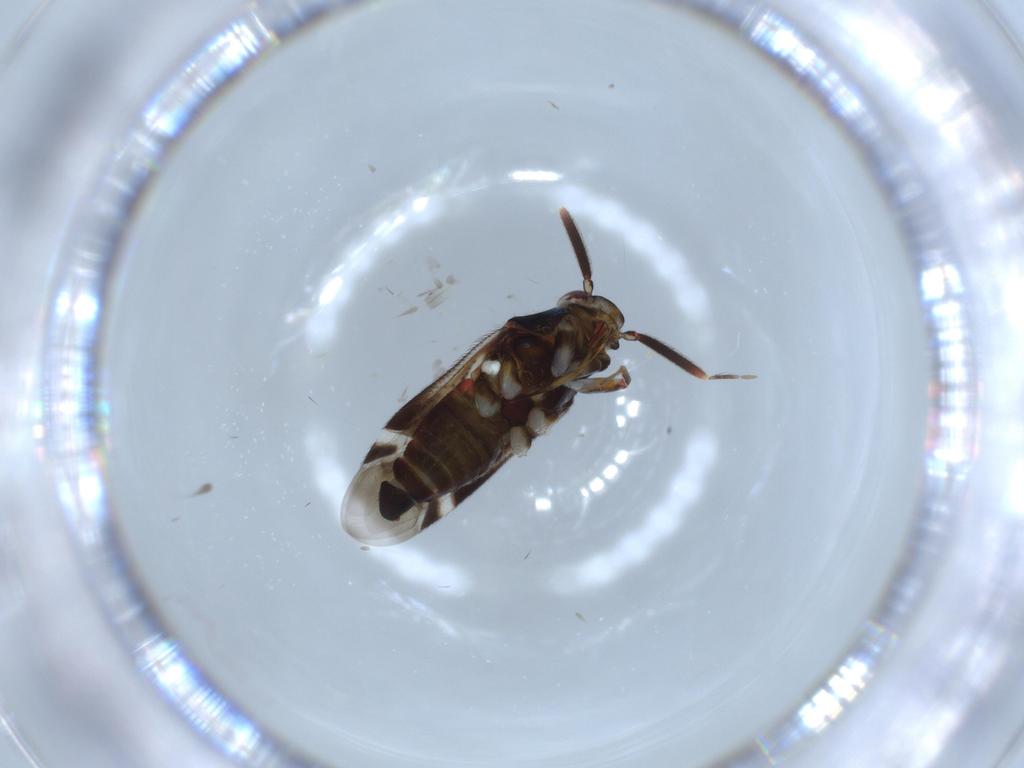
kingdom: Animalia
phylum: Arthropoda
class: Insecta
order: Hemiptera
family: Miridae
